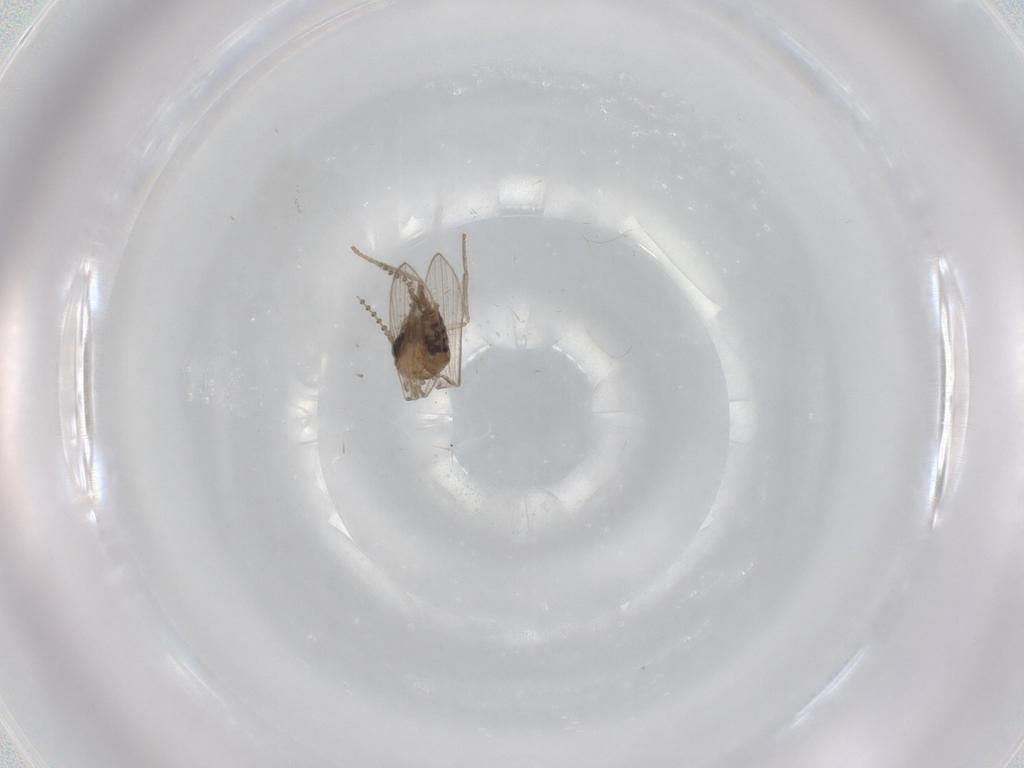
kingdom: Animalia
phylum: Arthropoda
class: Insecta
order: Diptera
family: Psychodidae
